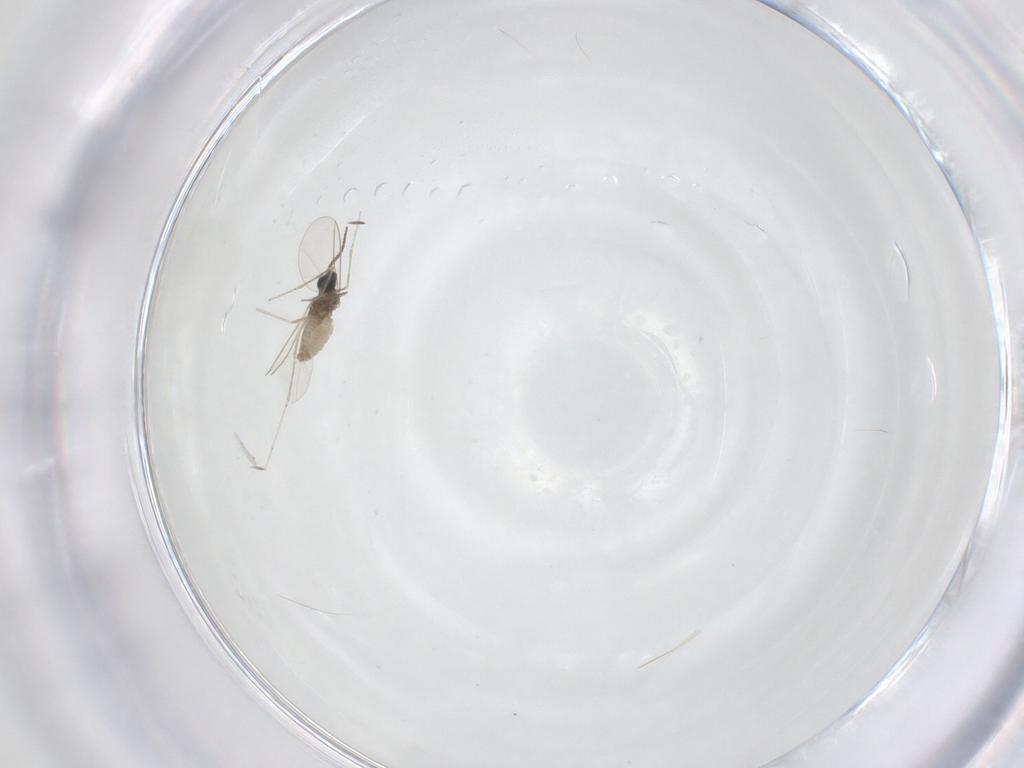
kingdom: Animalia
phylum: Arthropoda
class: Insecta
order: Diptera
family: Cecidomyiidae
